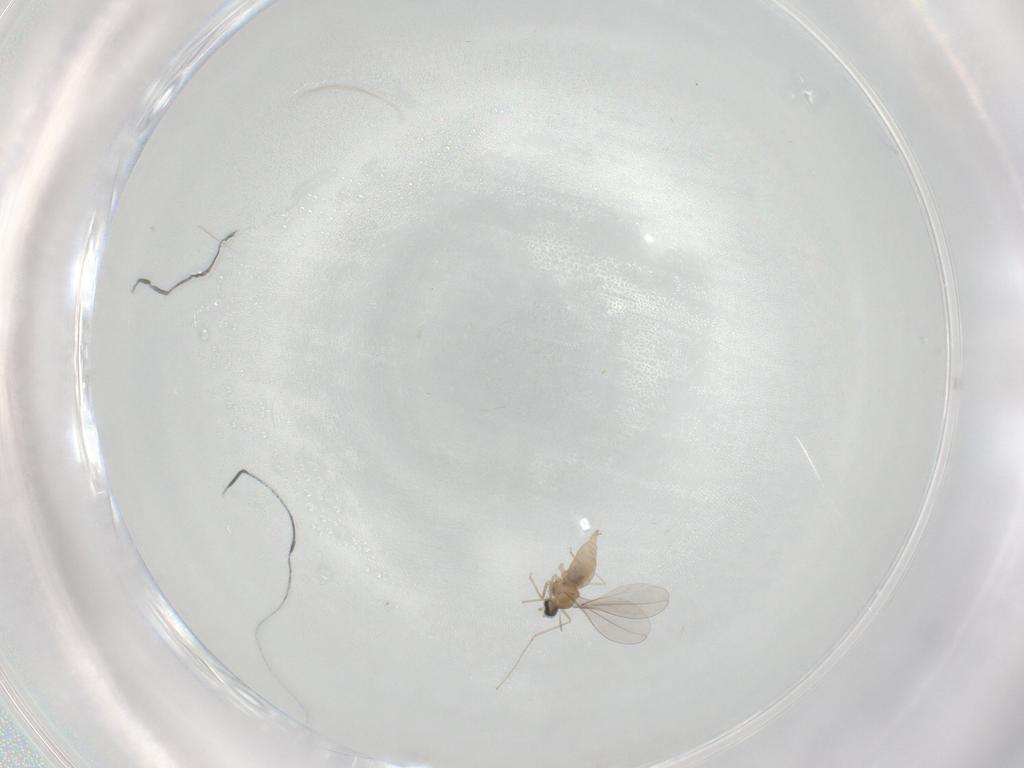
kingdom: Animalia
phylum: Arthropoda
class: Insecta
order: Diptera
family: Cecidomyiidae
